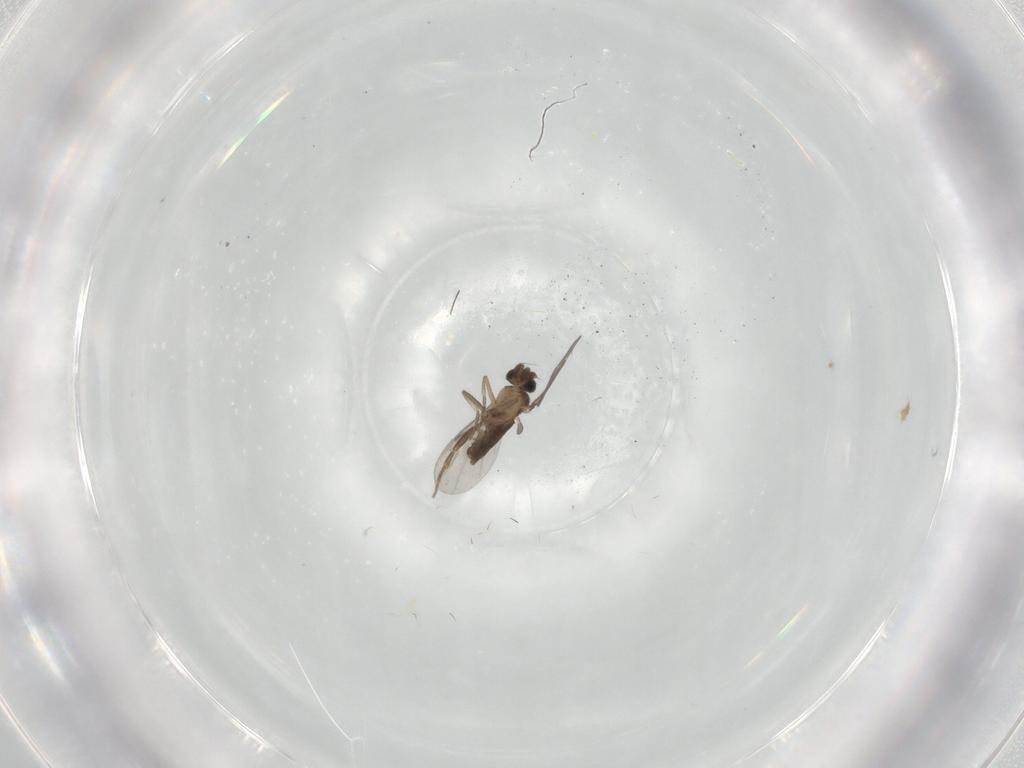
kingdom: Animalia
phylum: Arthropoda
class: Insecta
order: Diptera
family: Phoridae
